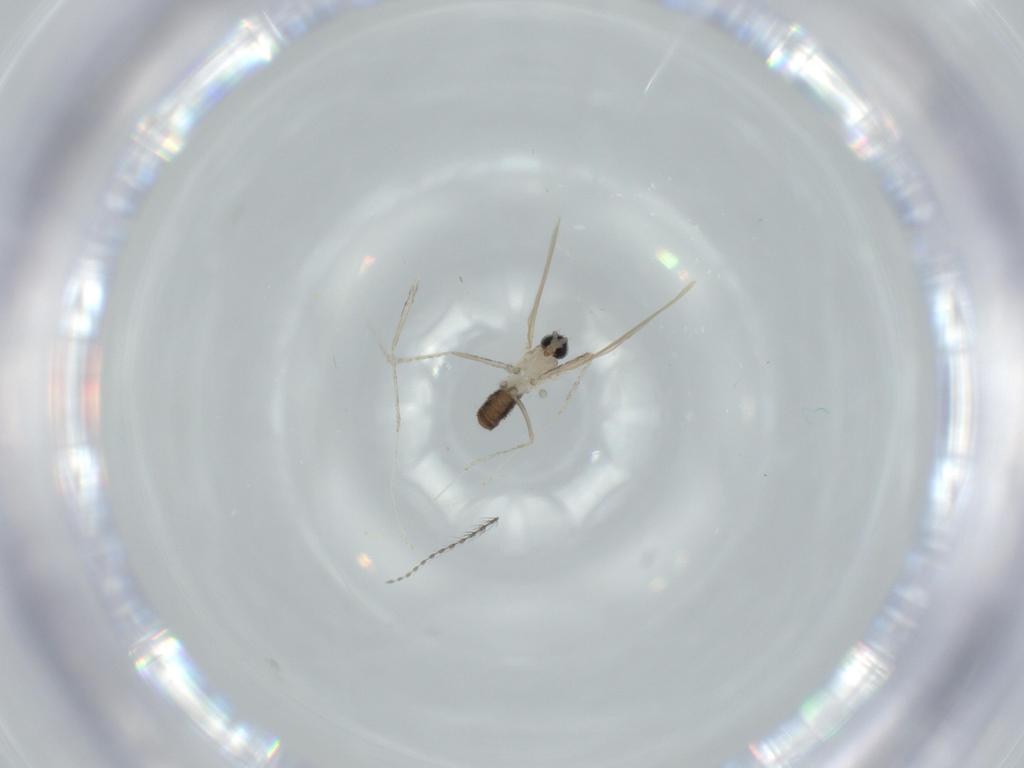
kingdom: Animalia
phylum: Arthropoda
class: Insecta
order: Diptera
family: Cecidomyiidae
